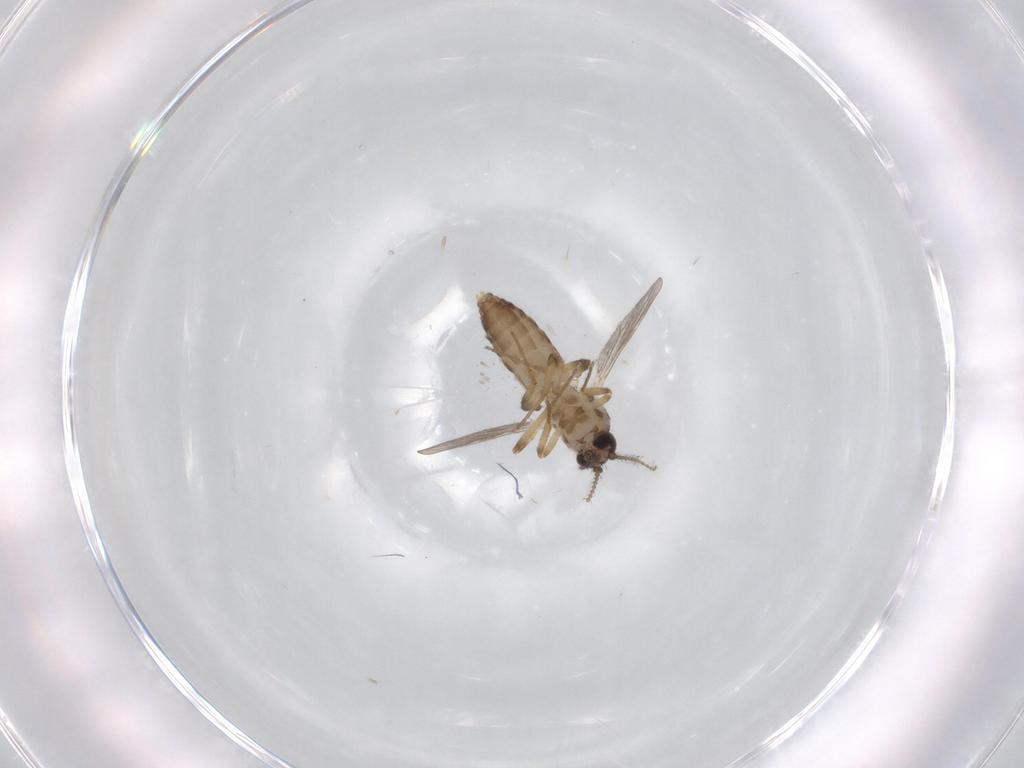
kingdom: Animalia
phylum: Arthropoda
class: Insecta
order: Diptera
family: Ceratopogonidae
